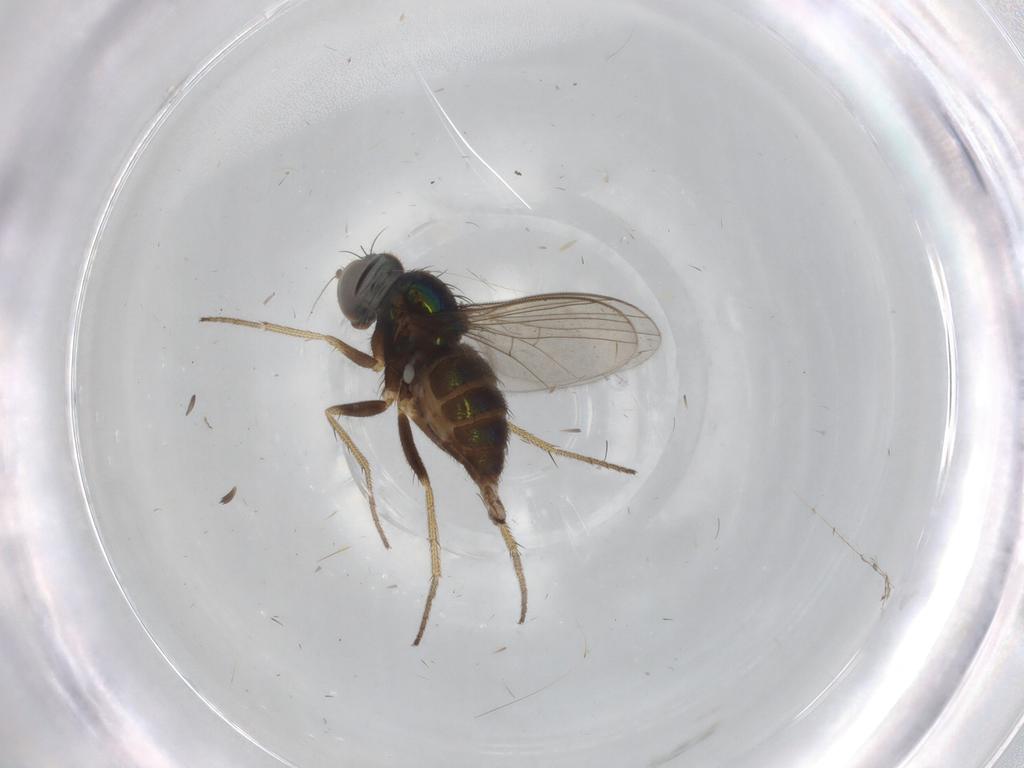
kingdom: Animalia
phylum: Arthropoda
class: Insecta
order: Diptera
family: Dolichopodidae
